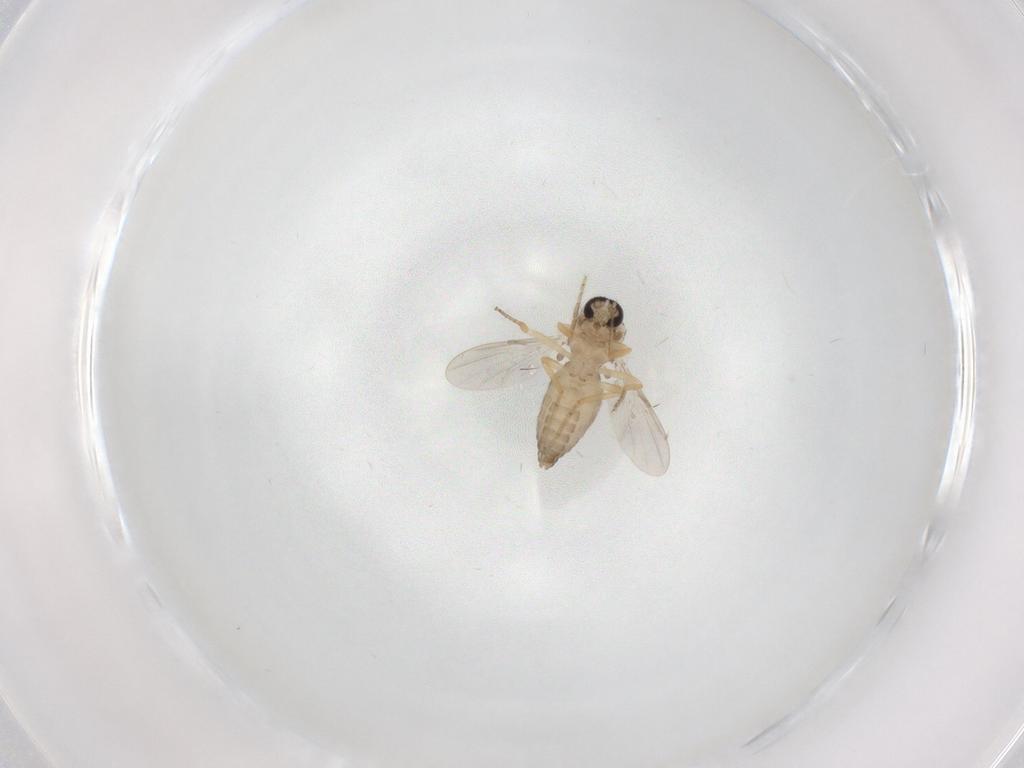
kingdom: Animalia
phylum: Arthropoda
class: Insecta
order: Diptera
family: Ceratopogonidae
